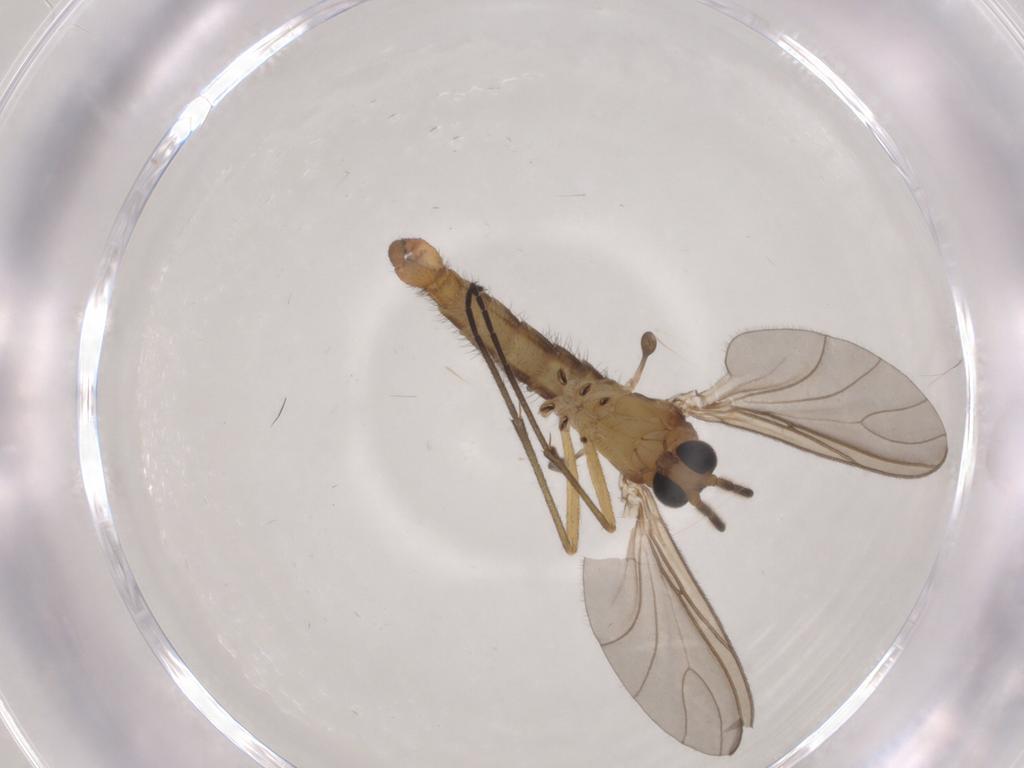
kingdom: Animalia
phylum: Arthropoda
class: Insecta
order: Diptera
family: Sciaridae
